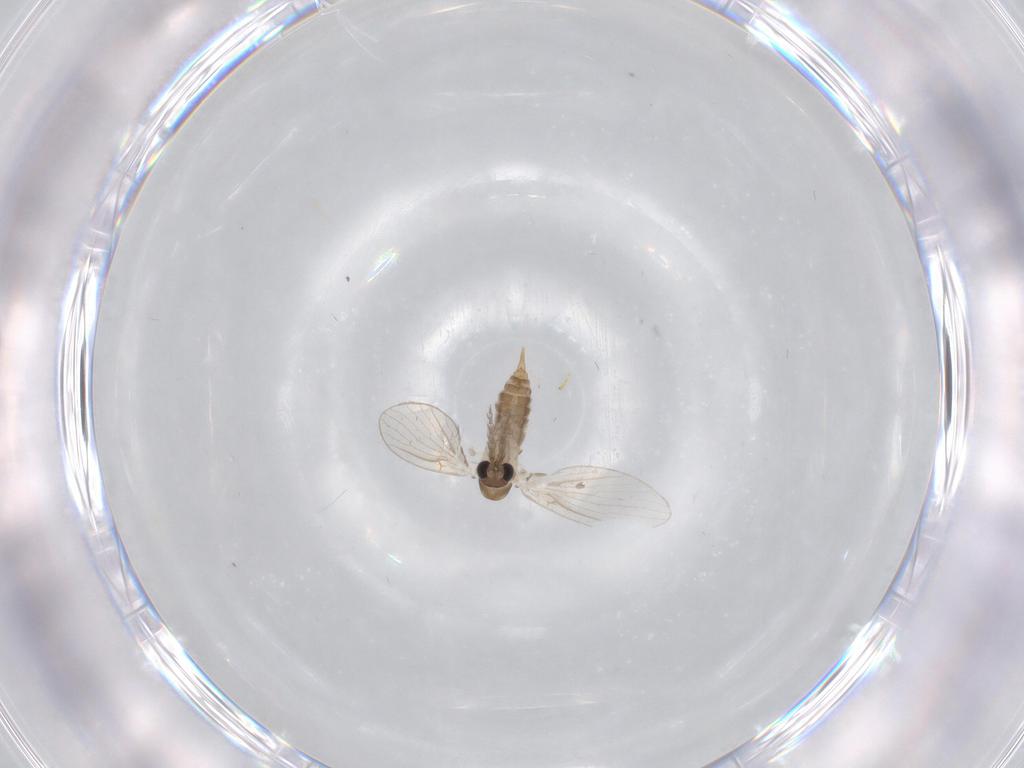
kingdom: Animalia
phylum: Arthropoda
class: Insecta
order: Diptera
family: Psychodidae
